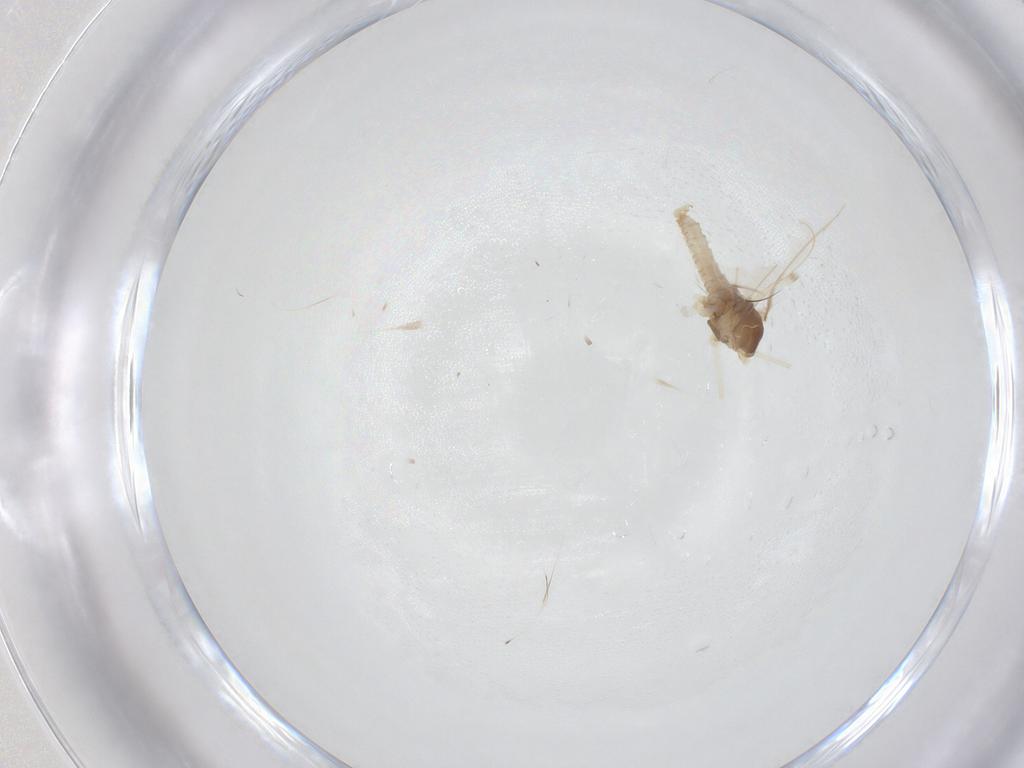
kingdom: Animalia
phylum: Arthropoda
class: Insecta
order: Diptera
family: Cecidomyiidae
